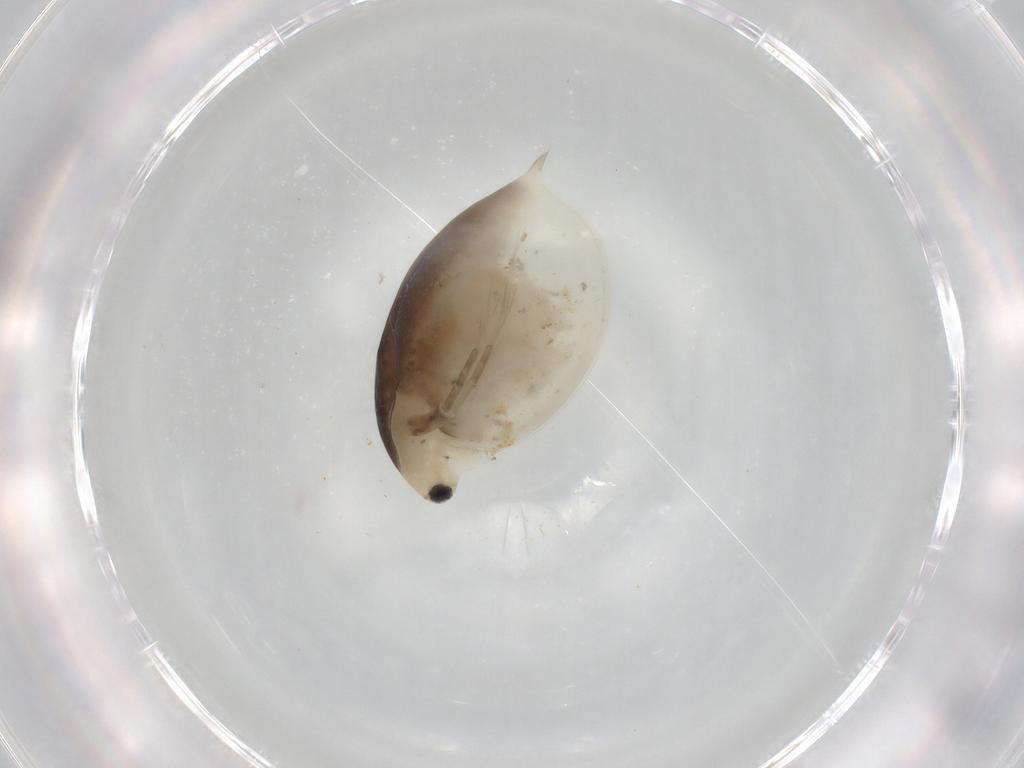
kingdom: Animalia
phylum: Arthropoda
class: Branchiopoda
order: Diplostraca
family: Daphniidae
